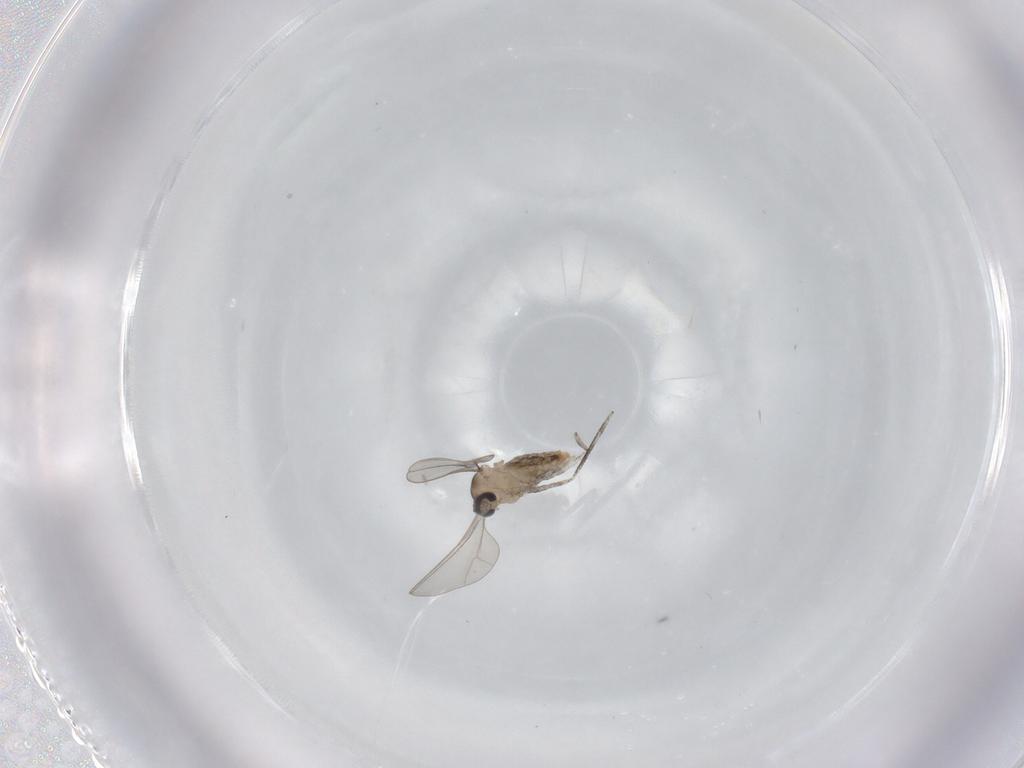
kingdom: Animalia
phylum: Arthropoda
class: Insecta
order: Diptera
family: Cecidomyiidae
